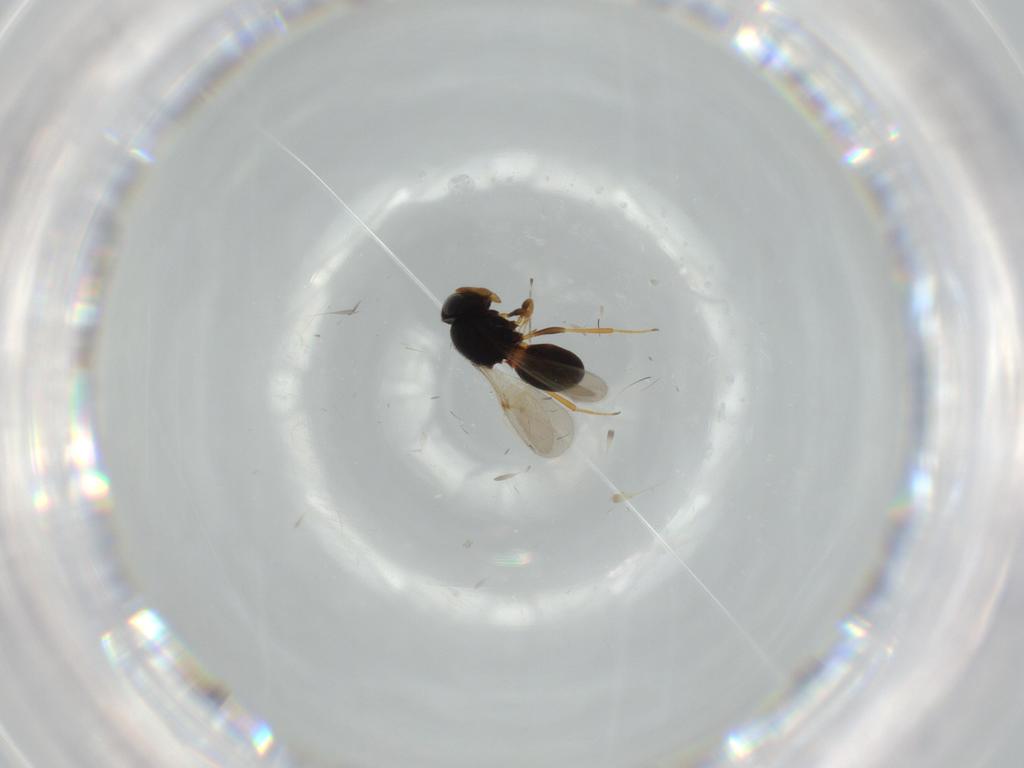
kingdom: Animalia
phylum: Arthropoda
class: Insecta
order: Hymenoptera
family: Scelionidae
